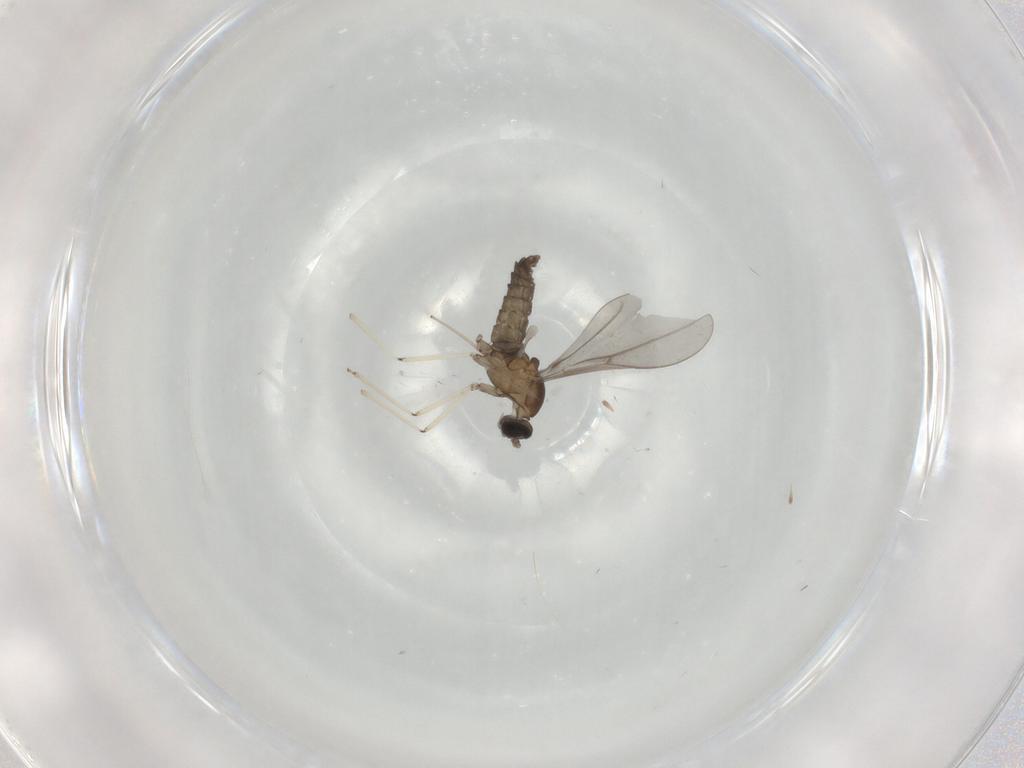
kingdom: Animalia
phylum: Arthropoda
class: Insecta
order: Diptera
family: Cecidomyiidae
